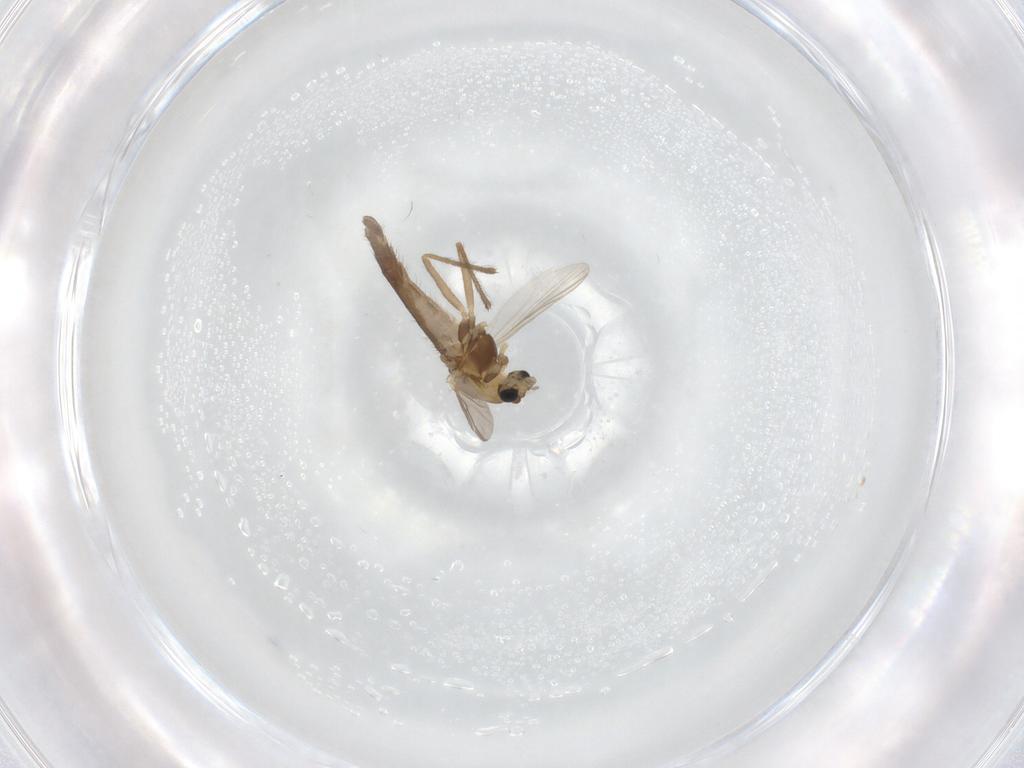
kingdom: Animalia
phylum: Arthropoda
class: Insecta
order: Diptera
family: Chironomidae
